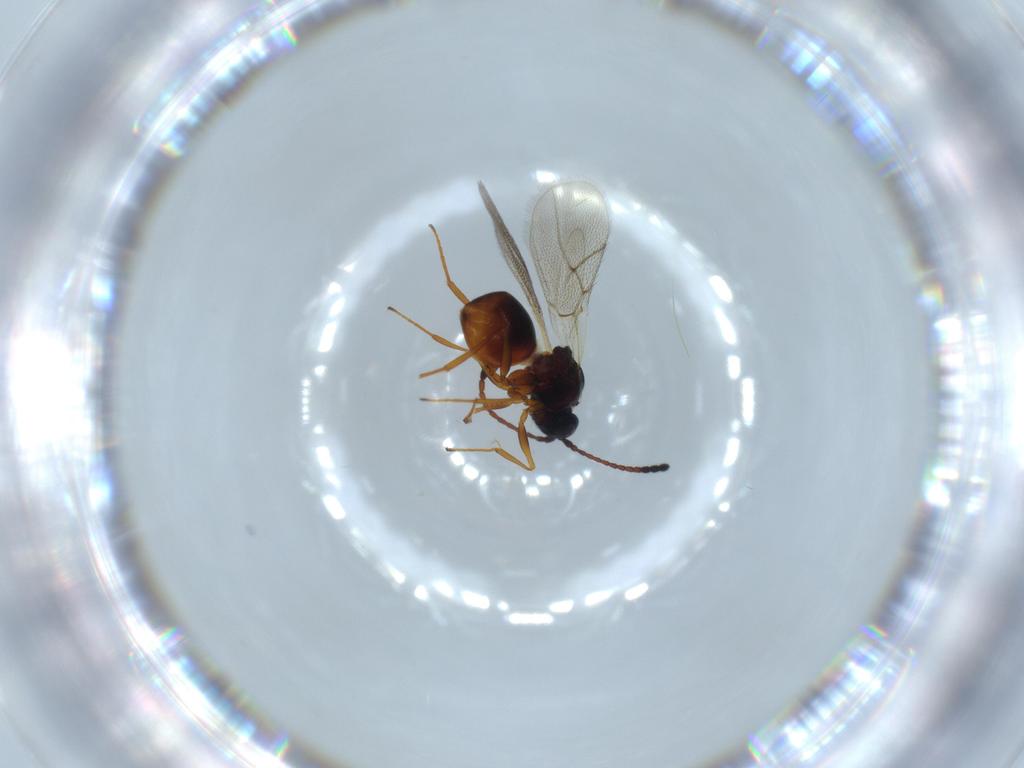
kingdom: Animalia
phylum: Arthropoda
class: Insecta
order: Hymenoptera
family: Figitidae
